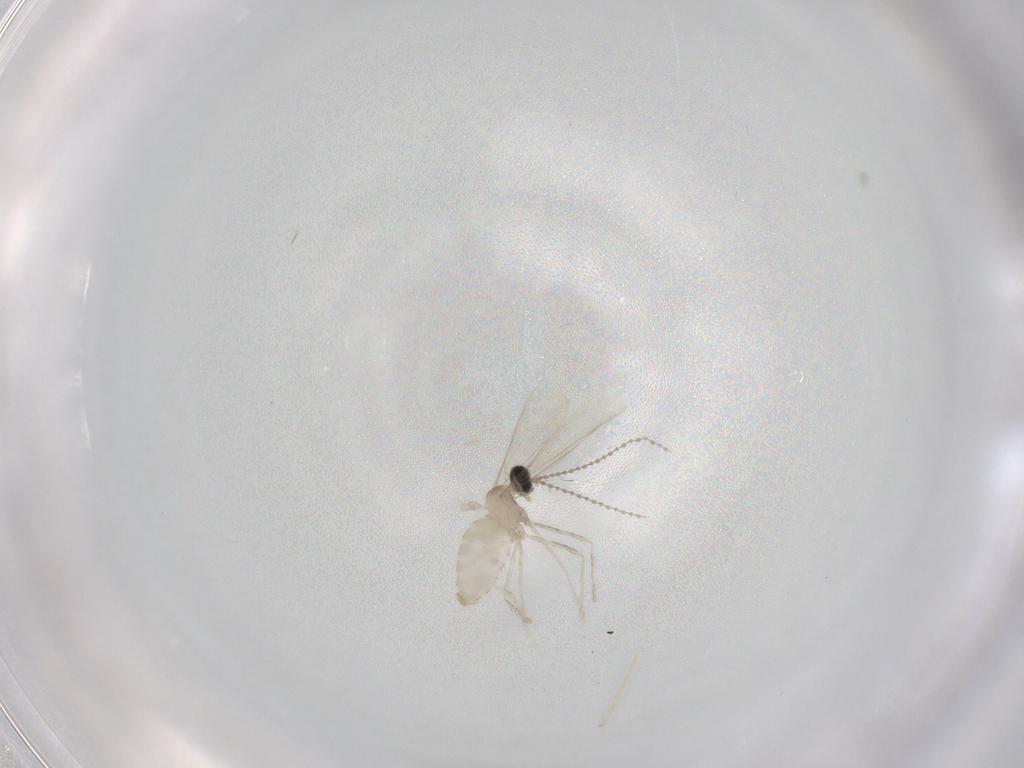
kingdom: Animalia
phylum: Arthropoda
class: Insecta
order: Diptera
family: Cecidomyiidae
